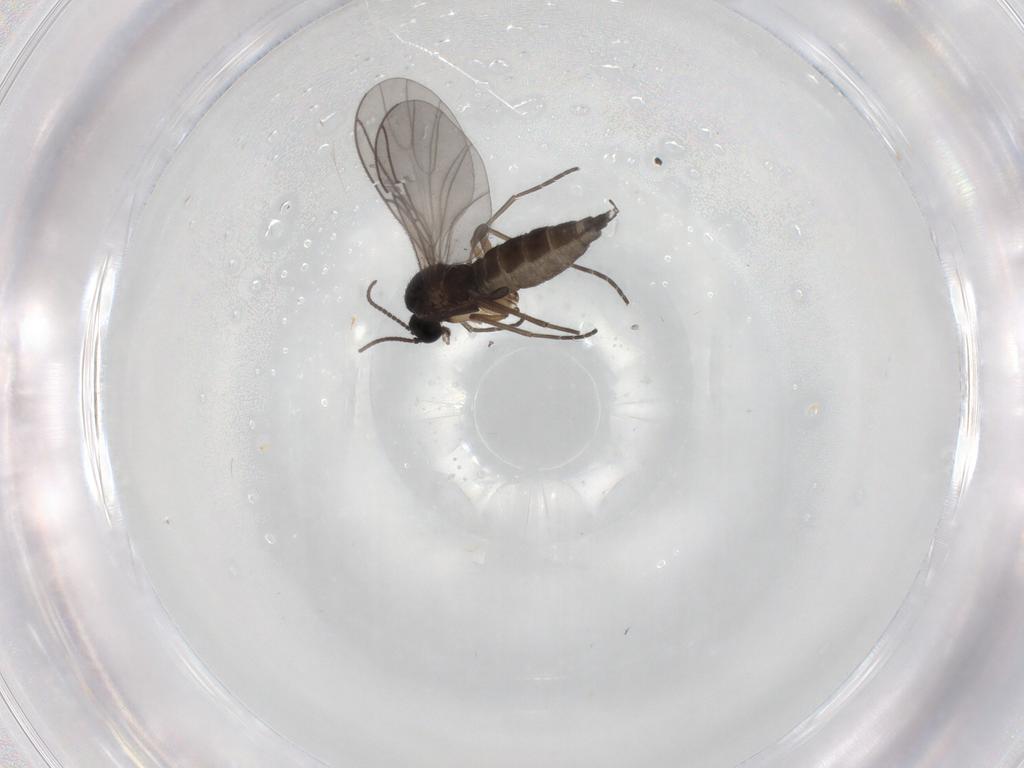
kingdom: Animalia
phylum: Arthropoda
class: Insecta
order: Diptera
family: Sciaridae
